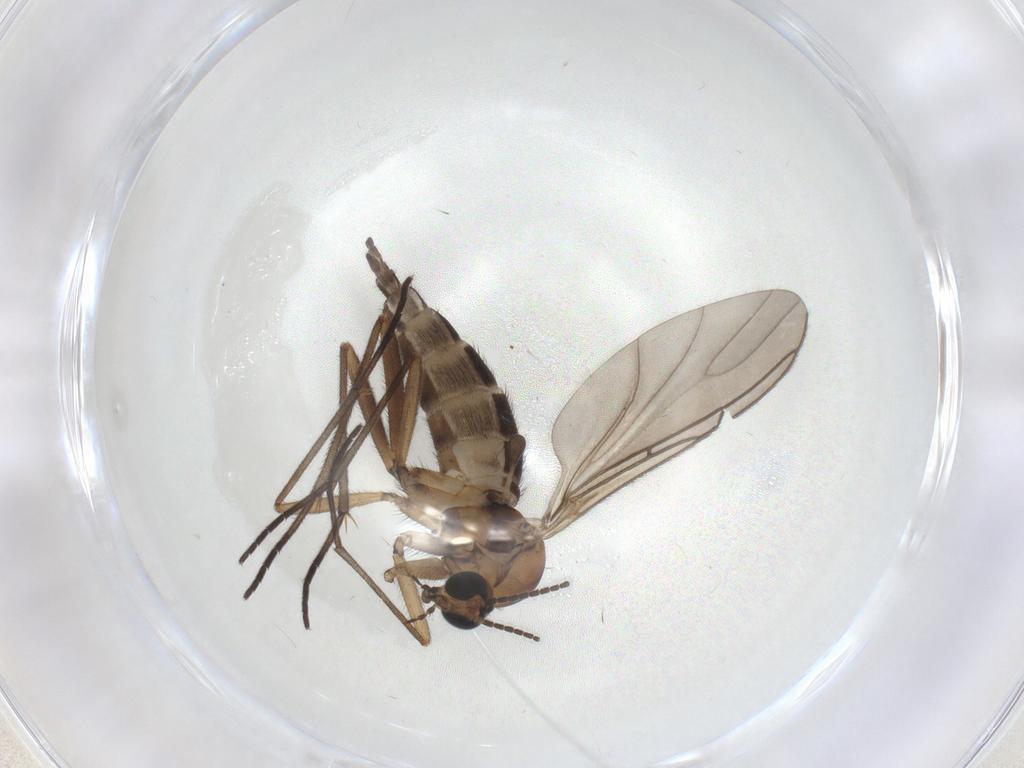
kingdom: Animalia
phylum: Arthropoda
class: Insecta
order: Diptera
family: Sciaridae
